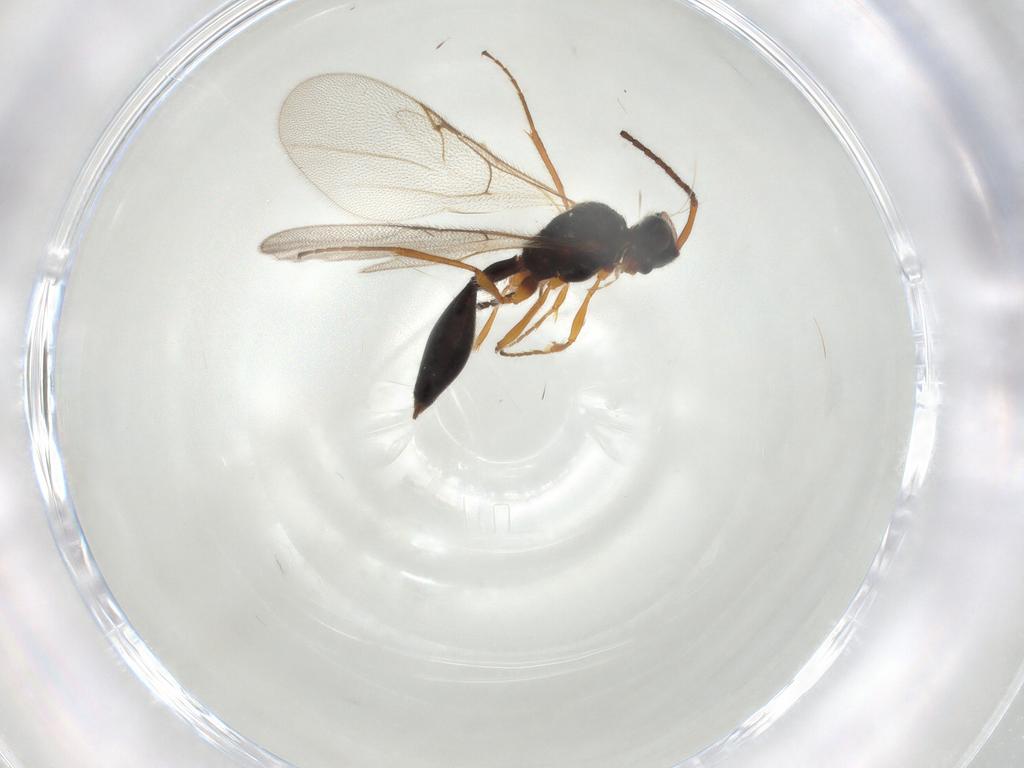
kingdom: Animalia
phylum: Arthropoda
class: Insecta
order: Hymenoptera
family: Diapriidae
